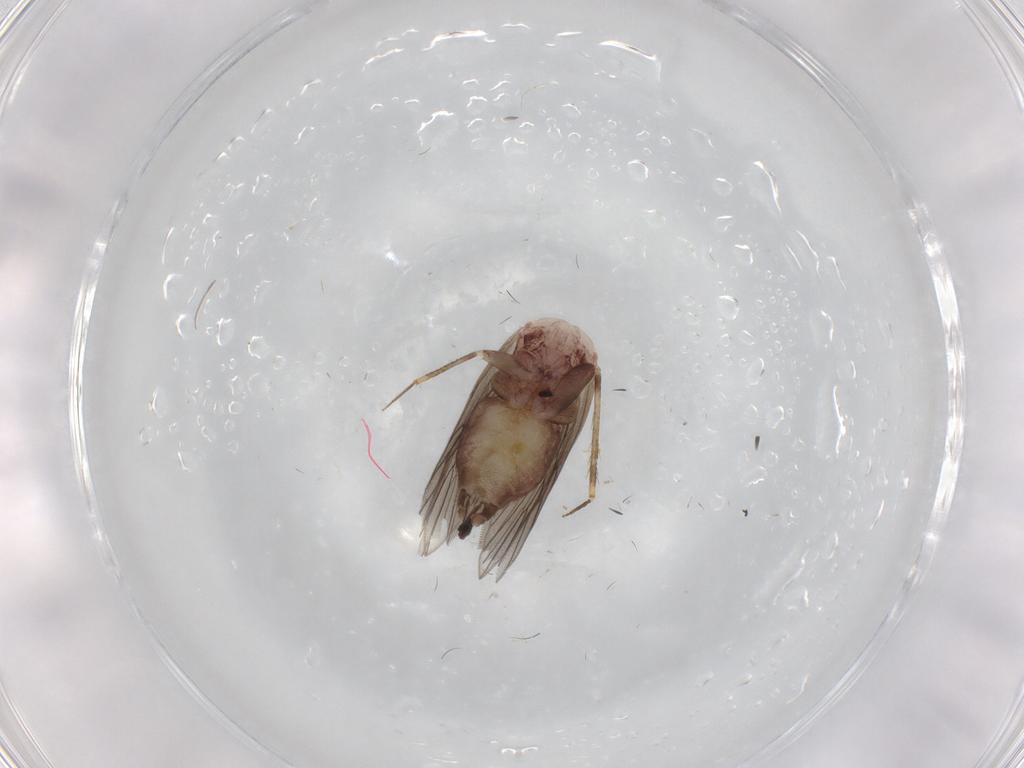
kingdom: Animalia
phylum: Arthropoda
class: Insecta
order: Psocodea
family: Lepidopsocidae
